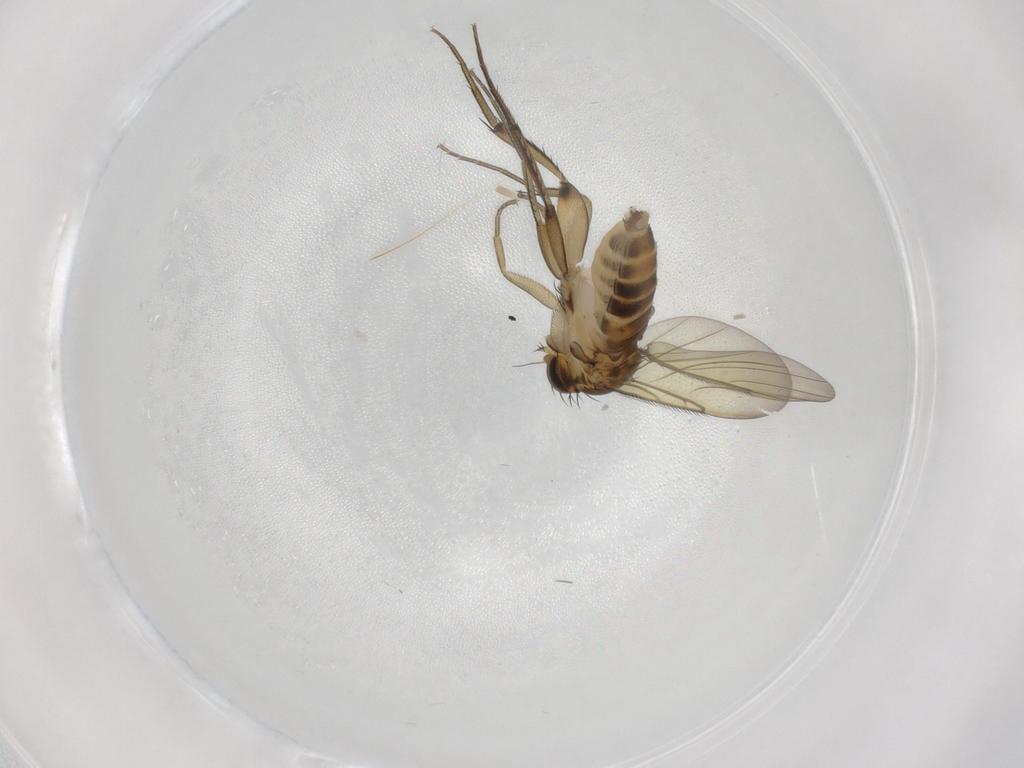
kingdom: Animalia
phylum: Arthropoda
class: Insecta
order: Diptera
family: Phoridae
